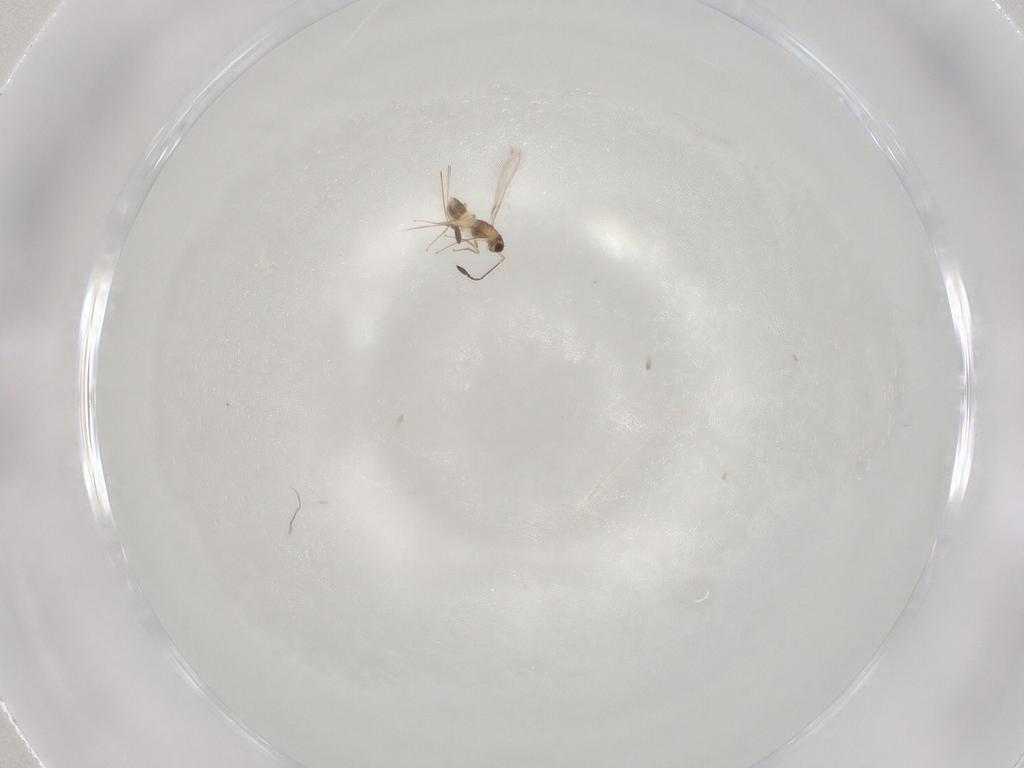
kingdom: Animalia
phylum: Arthropoda
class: Insecta
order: Hymenoptera
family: Mymaridae
